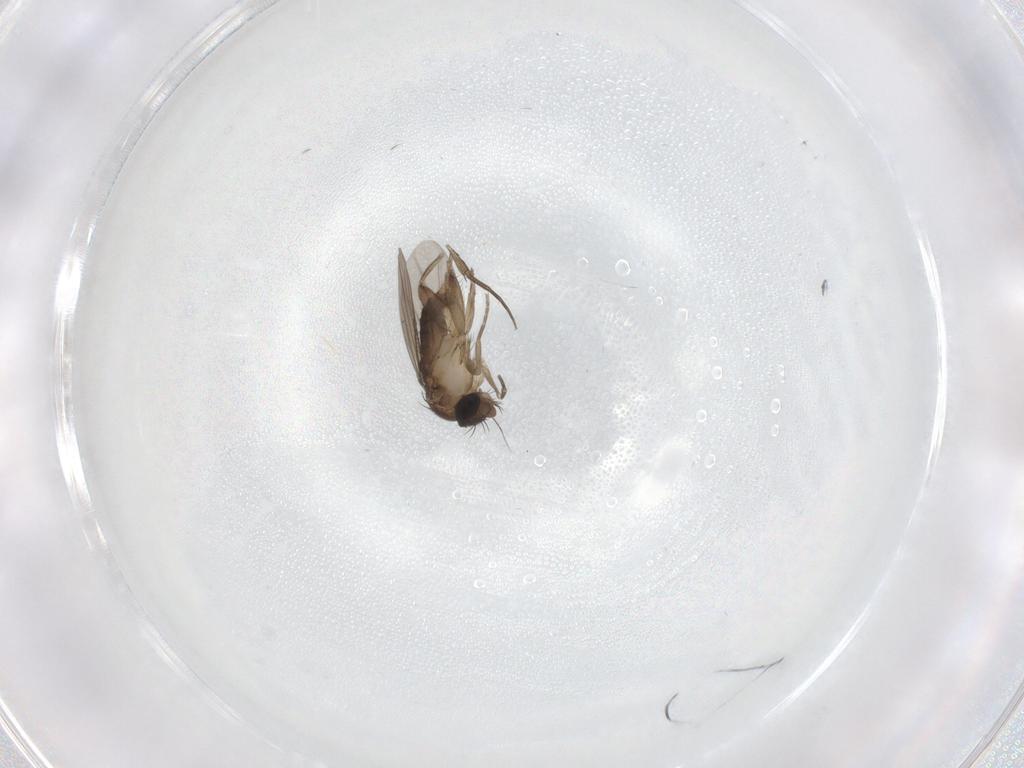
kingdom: Animalia
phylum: Arthropoda
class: Insecta
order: Diptera
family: Phoridae
